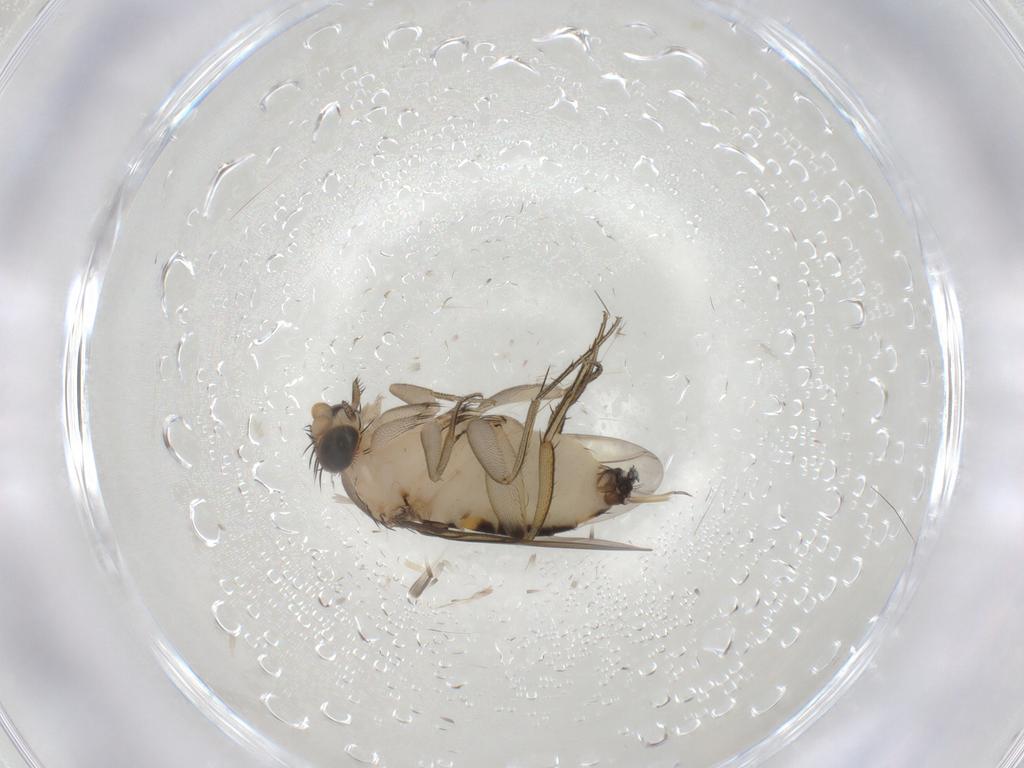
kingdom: Animalia
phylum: Arthropoda
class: Insecta
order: Diptera
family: Phoridae
